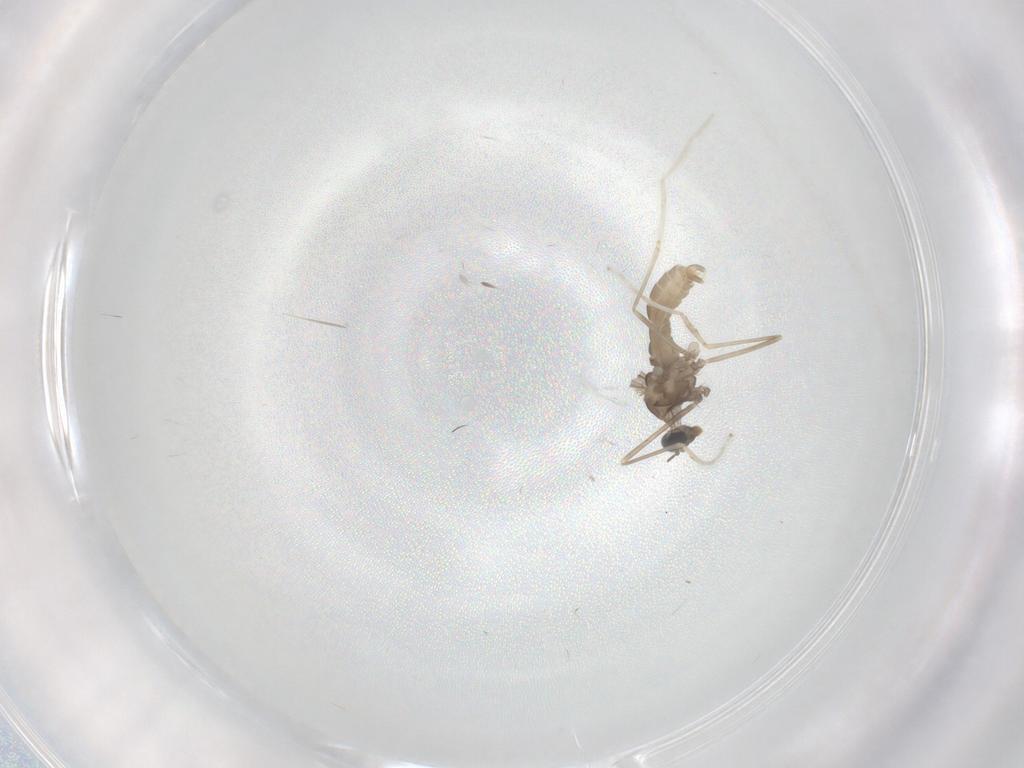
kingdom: Animalia
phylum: Arthropoda
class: Insecta
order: Diptera
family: Cecidomyiidae
